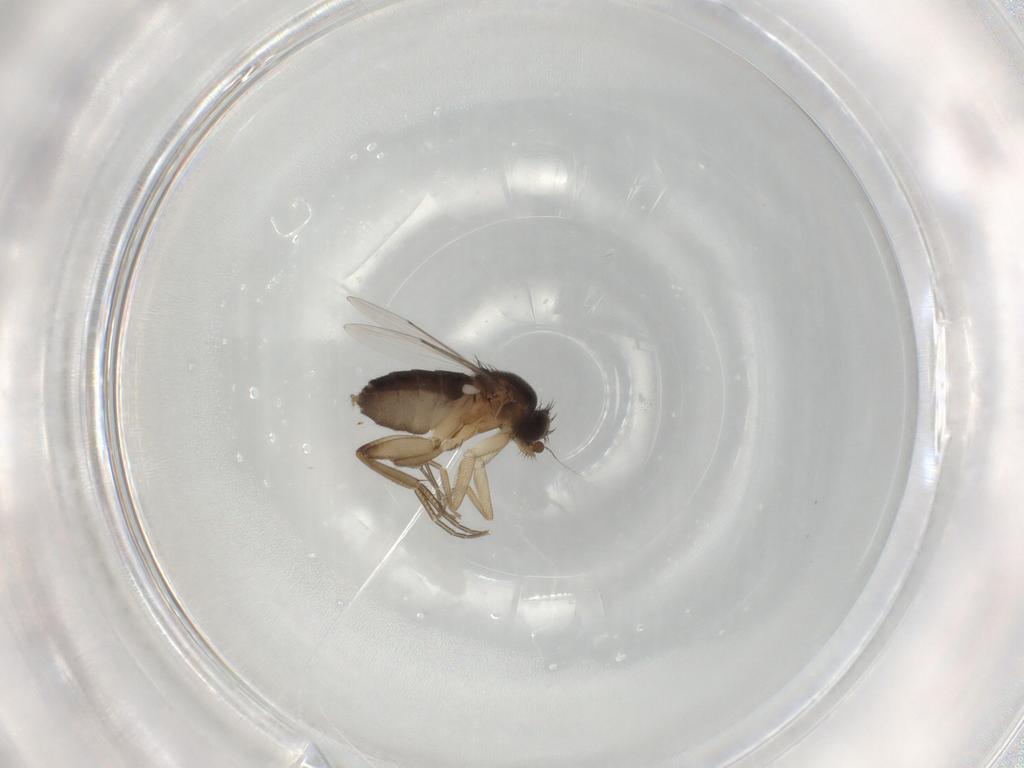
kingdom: Animalia
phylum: Arthropoda
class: Insecta
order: Diptera
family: Phoridae
